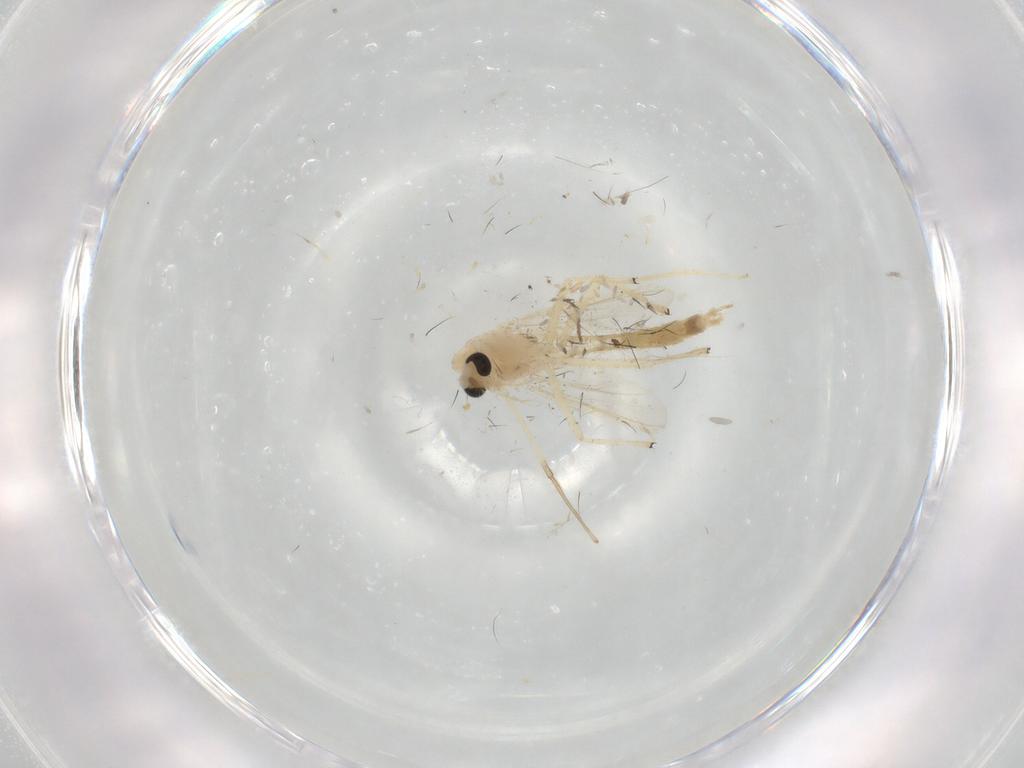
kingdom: Animalia
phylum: Arthropoda
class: Insecta
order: Diptera
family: Chironomidae
